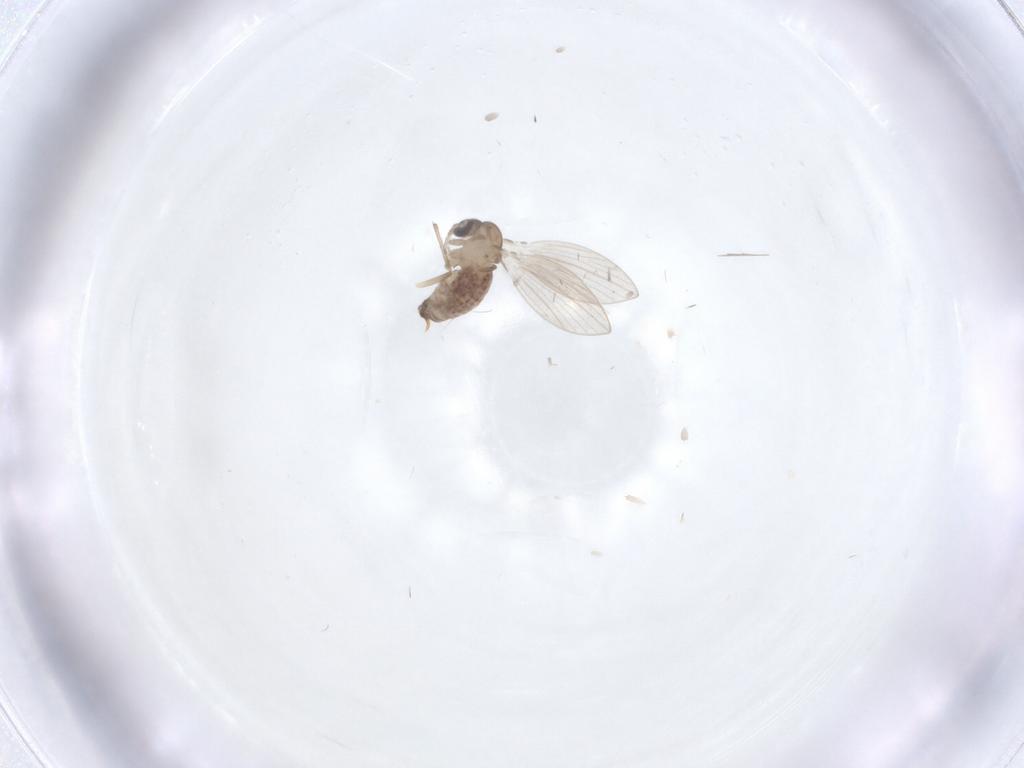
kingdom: Animalia
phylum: Arthropoda
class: Insecta
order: Diptera
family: Psychodidae
